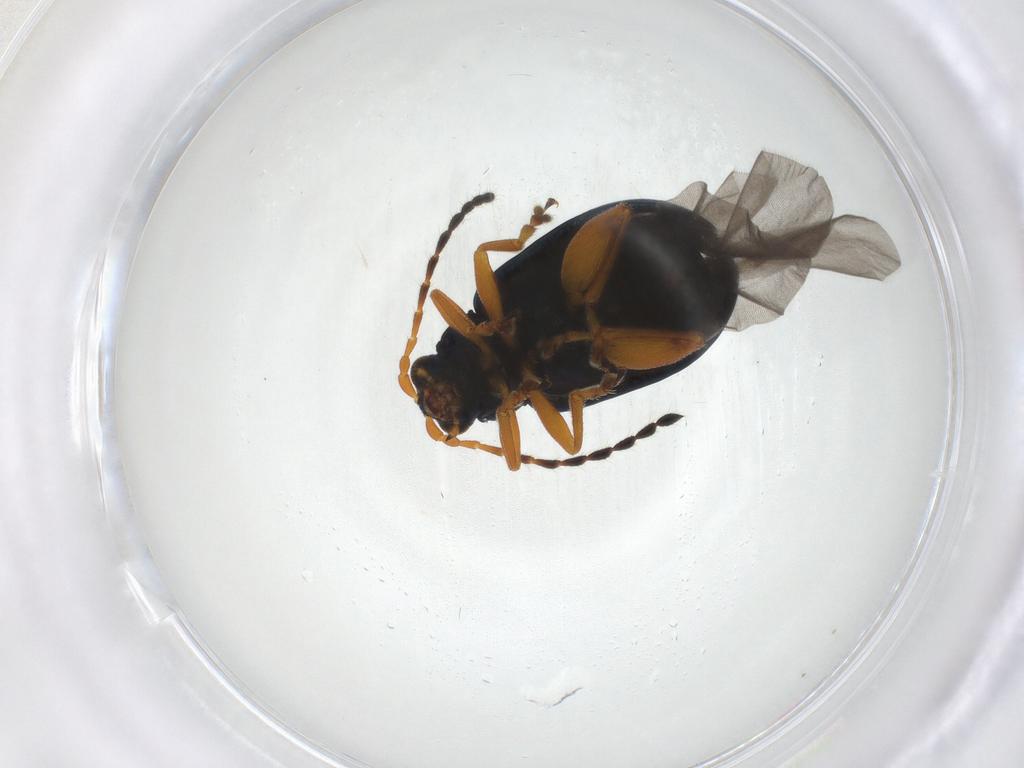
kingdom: Animalia
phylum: Arthropoda
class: Insecta
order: Coleoptera
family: Chrysomelidae
